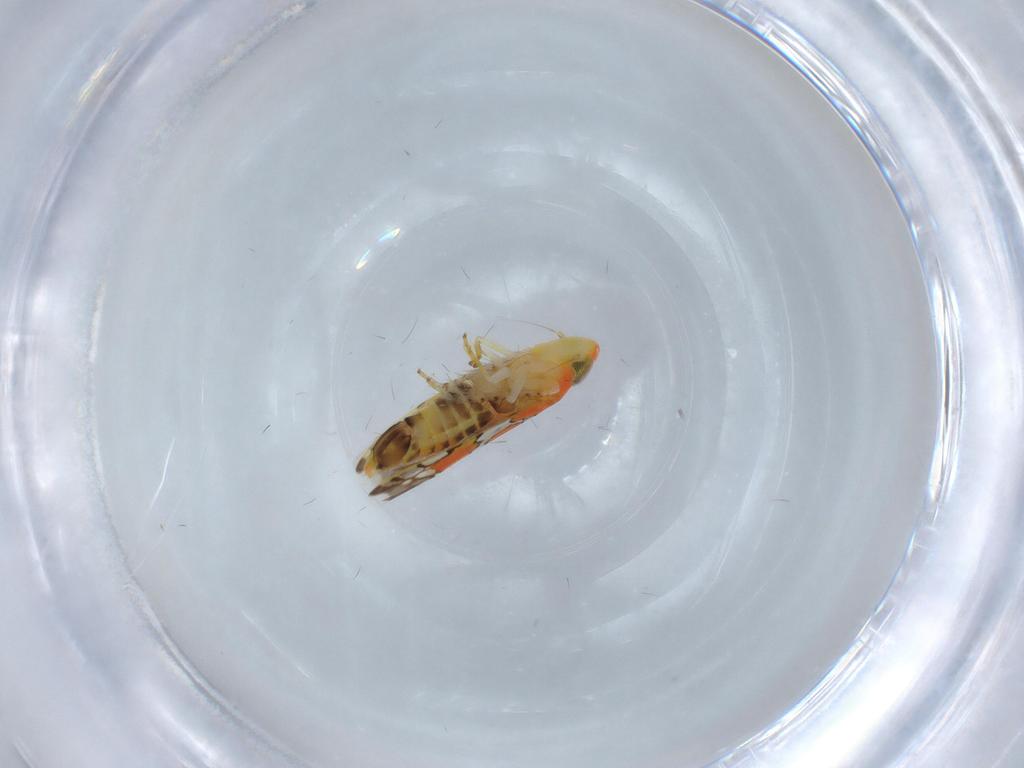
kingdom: Animalia
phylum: Arthropoda
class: Insecta
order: Hemiptera
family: Cicadellidae
